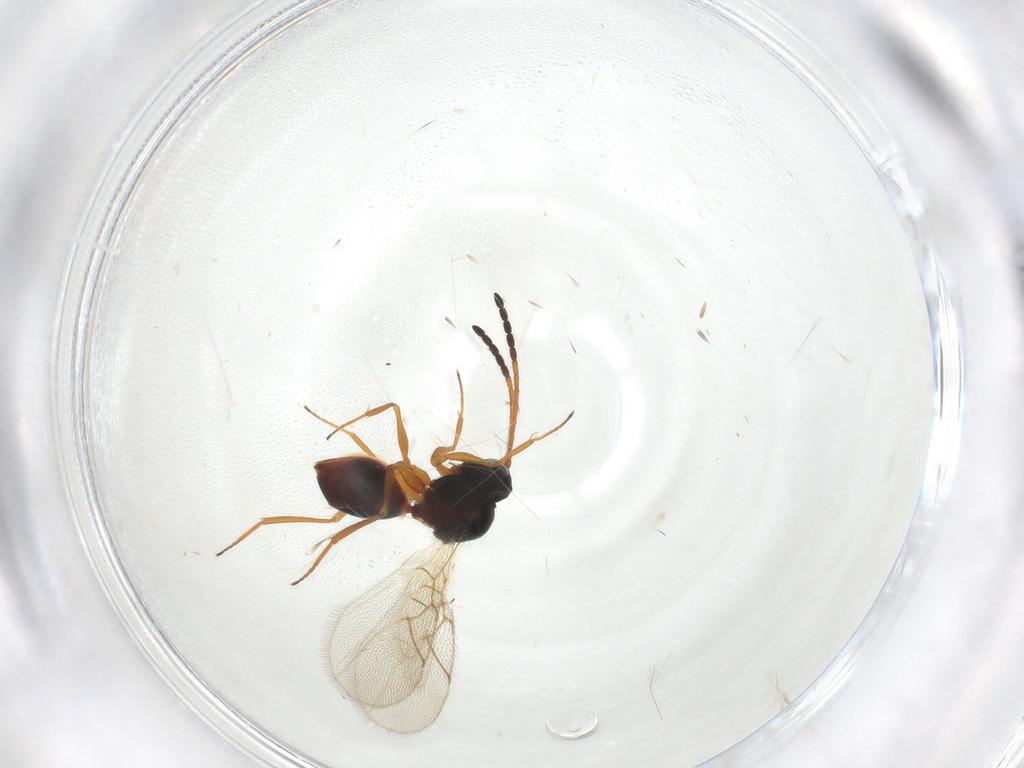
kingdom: Animalia
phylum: Arthropoda
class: Insecta
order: Hymenoptera
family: Figitidae
